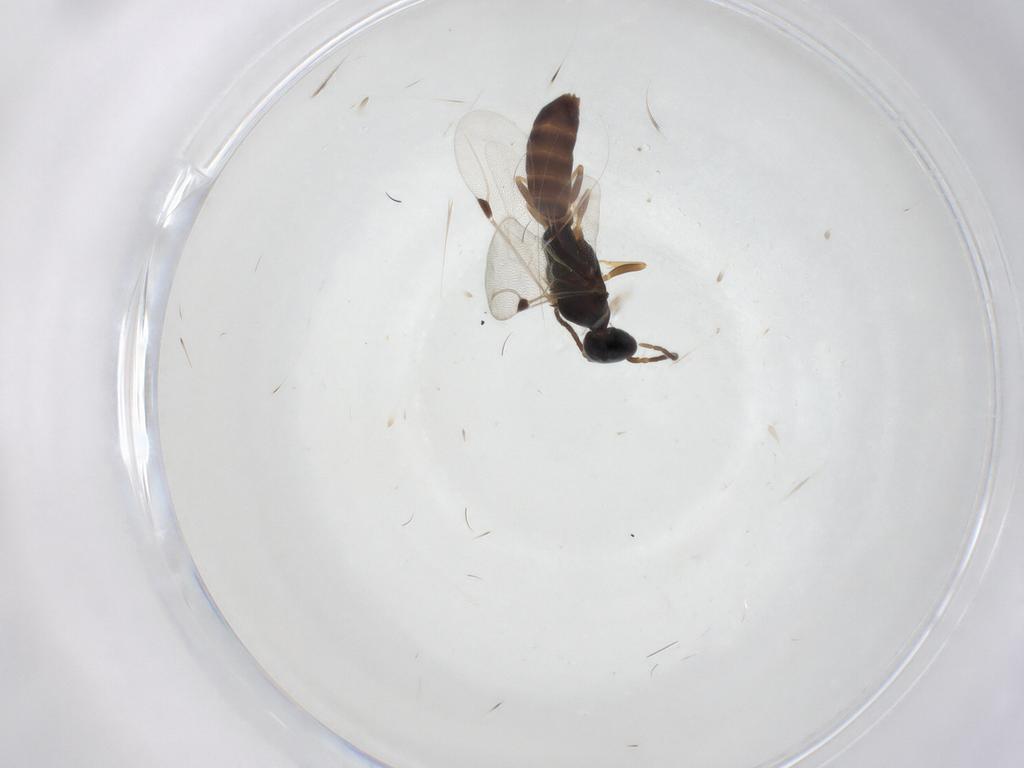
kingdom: Animalia
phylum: Arthropoda
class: Insecta
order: Hymenoptera
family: Bethylidae
